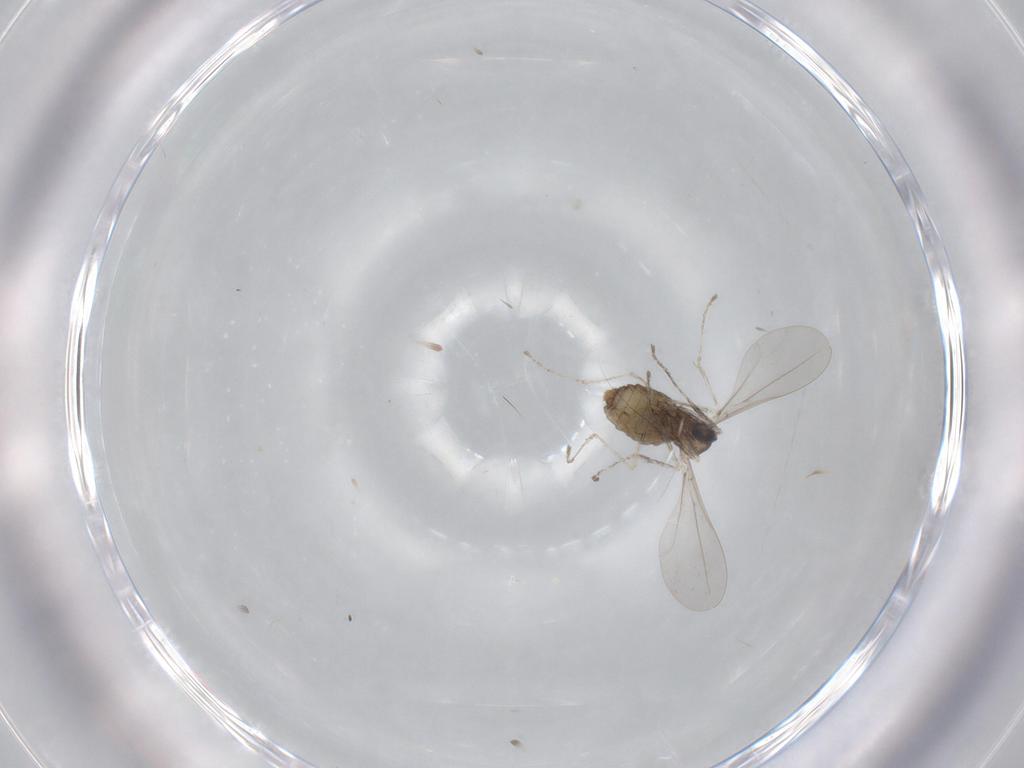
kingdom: Animalia
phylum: Arthropoda
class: Insecta
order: Diptera
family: Cecidomyiidae
